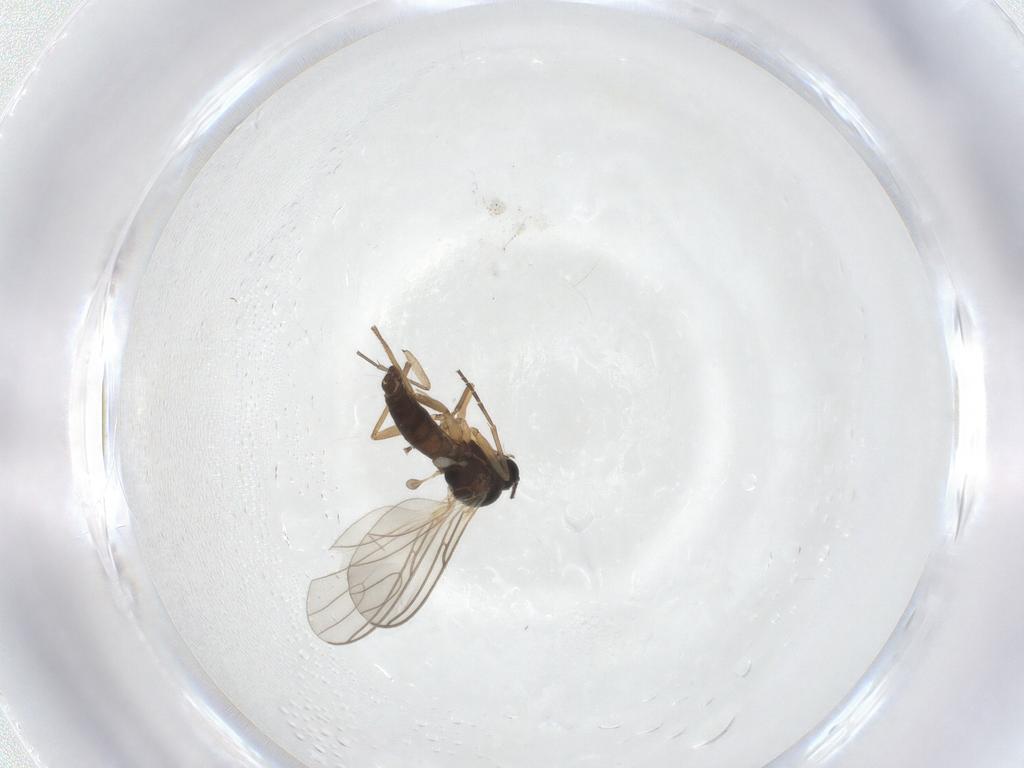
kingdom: Animalia
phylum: Arthropoda
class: Insecta
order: Diptera
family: Sciaridae
